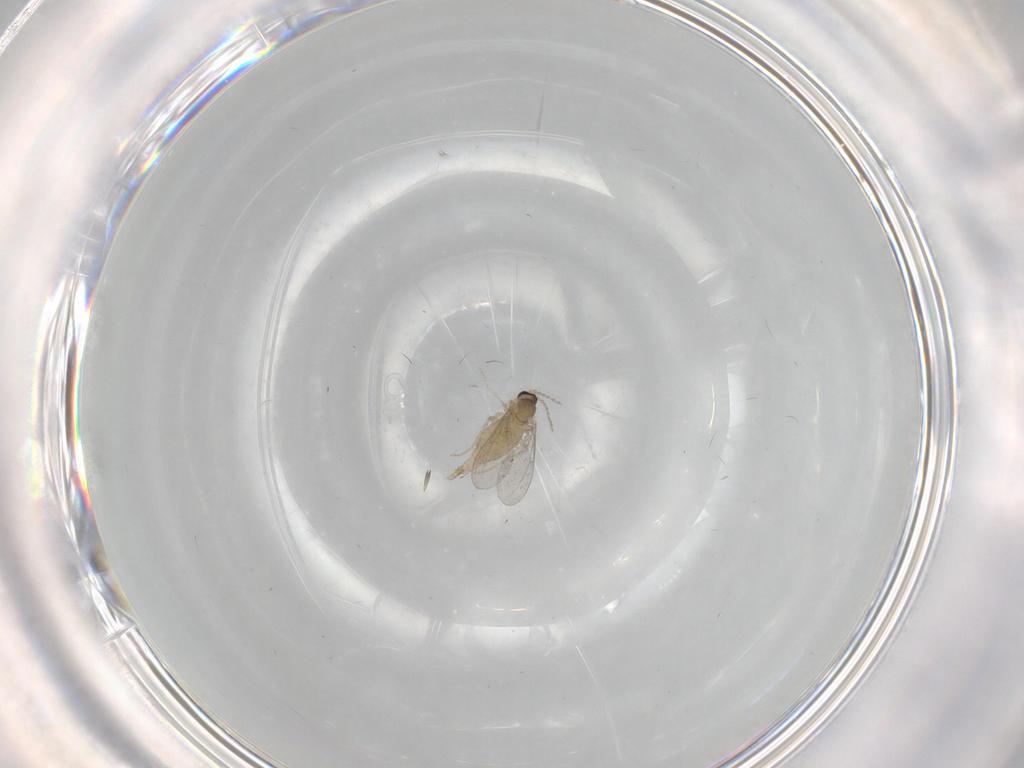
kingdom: Animalia
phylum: Arthropoda
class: Insecta
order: Diptera
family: Cecidomyiidae
